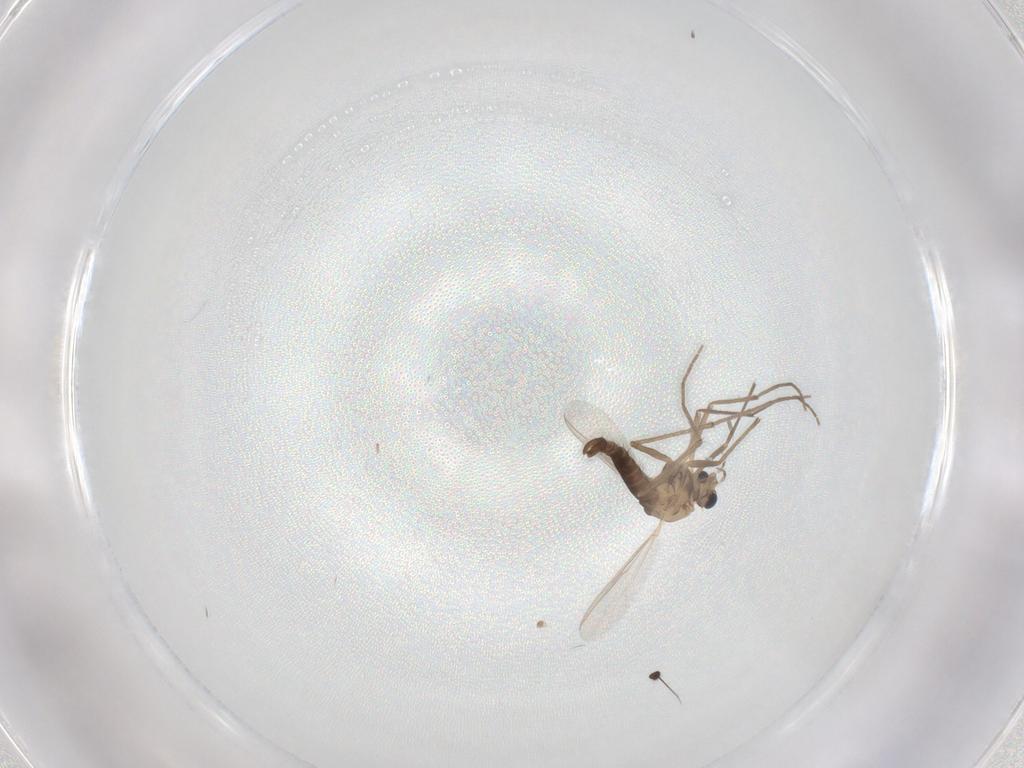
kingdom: Animalia
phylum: Arthropoda
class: Insecta
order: Diptera
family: Dolichopodidae
